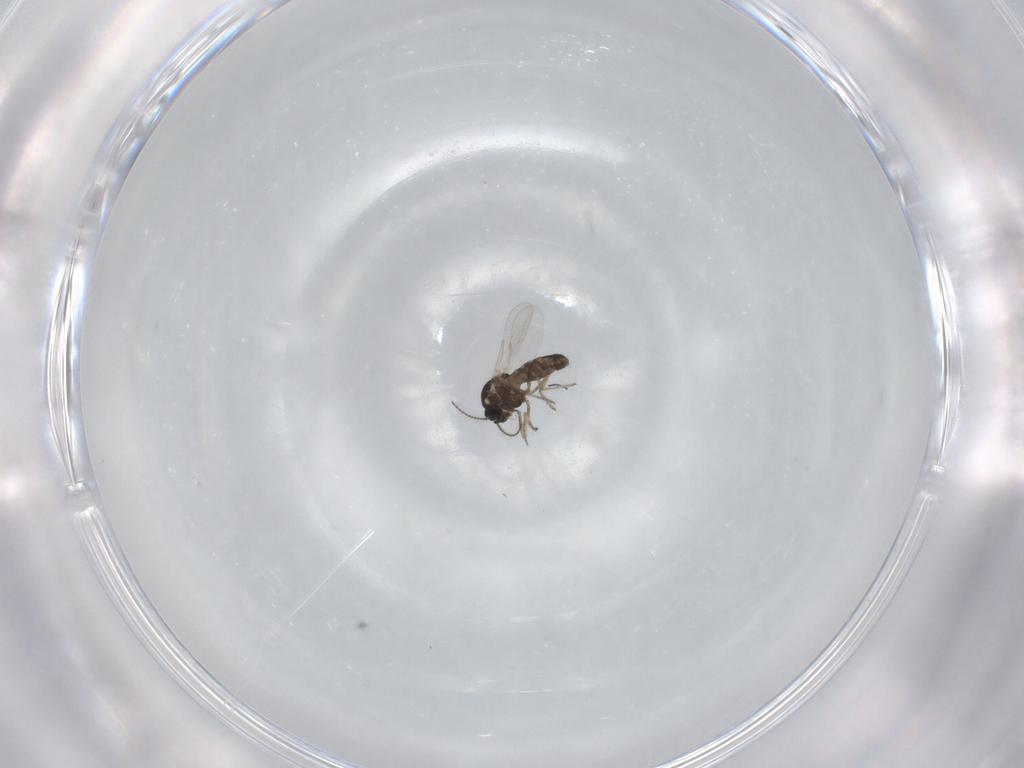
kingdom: Animalia
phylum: Arthropoda
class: Insecta
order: Diptera
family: Ceratopogonidae
